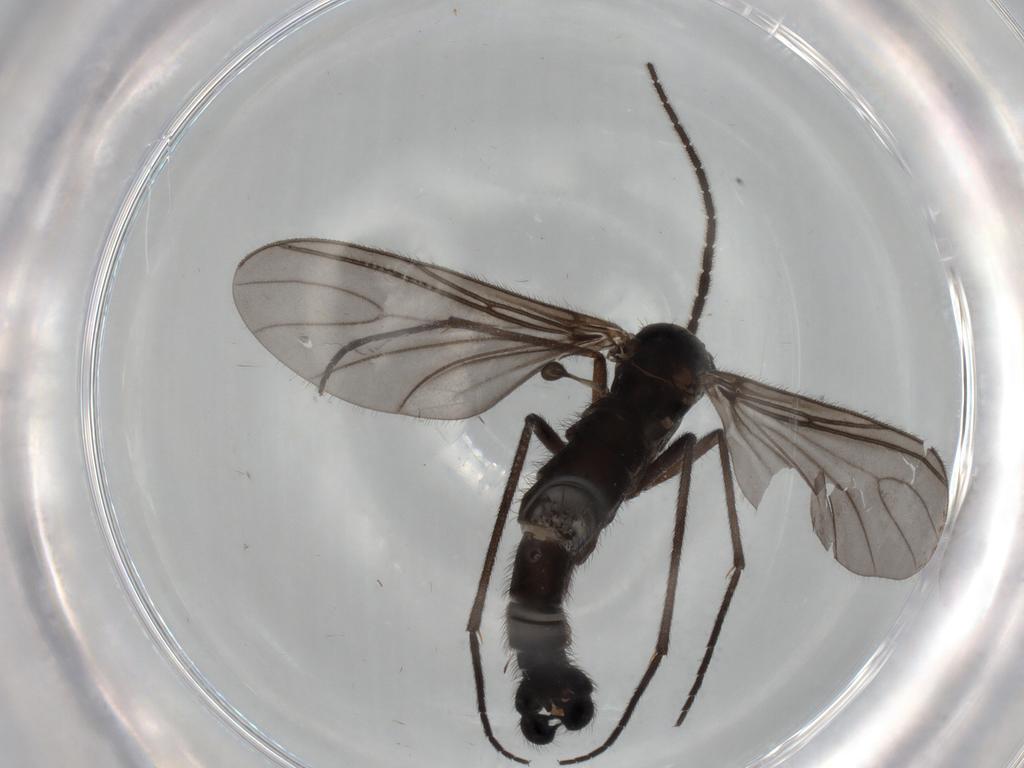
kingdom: Animalia
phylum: Arthropoda
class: Insecta
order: Diptera
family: Sciaridae
